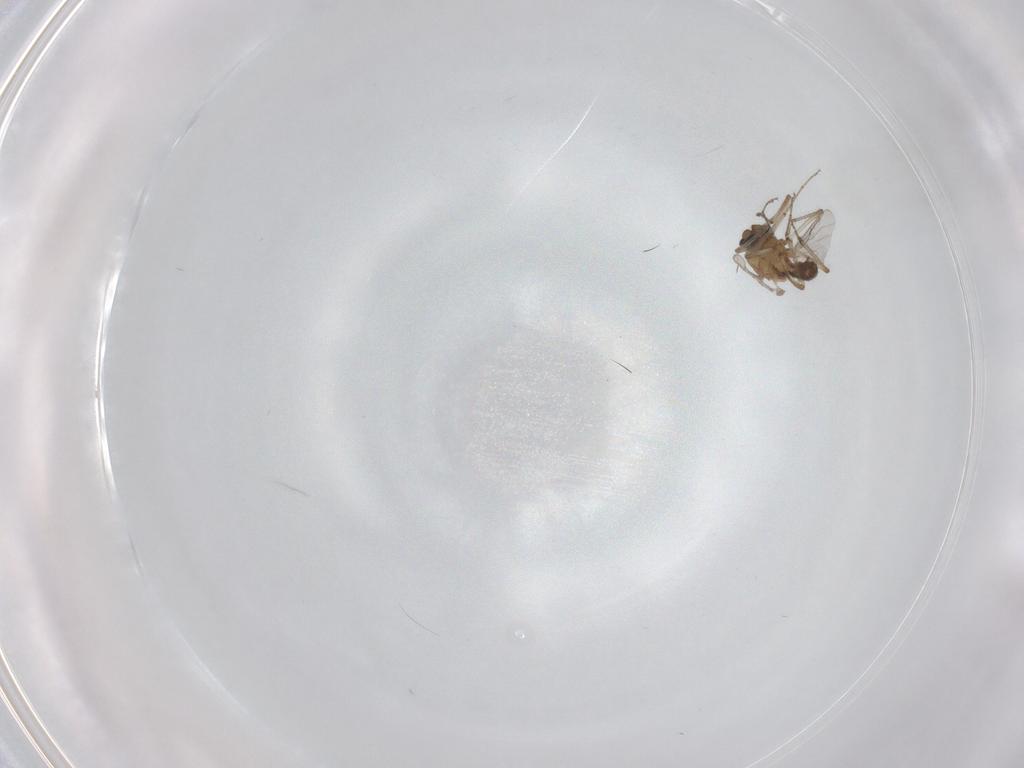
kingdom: Animalia
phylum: Arthropoda
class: Insecta
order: Diptera
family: Ceratopogonidae
